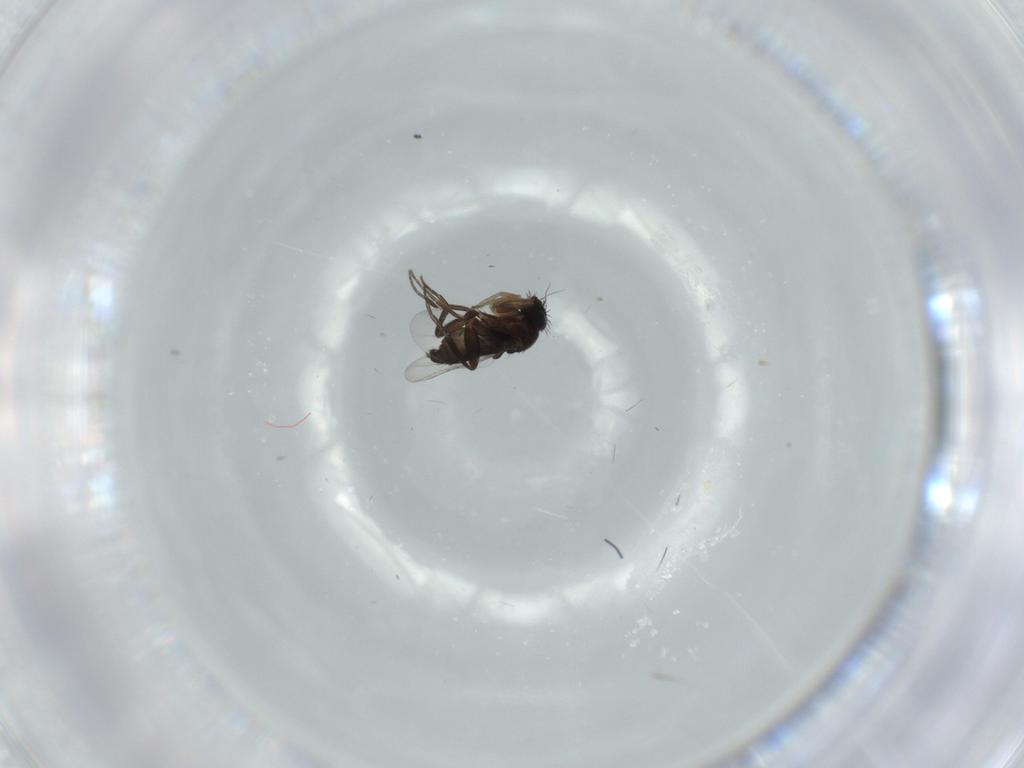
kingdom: Animalia
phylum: Arthropoda
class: Insecta
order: Diptera
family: Phoridae
